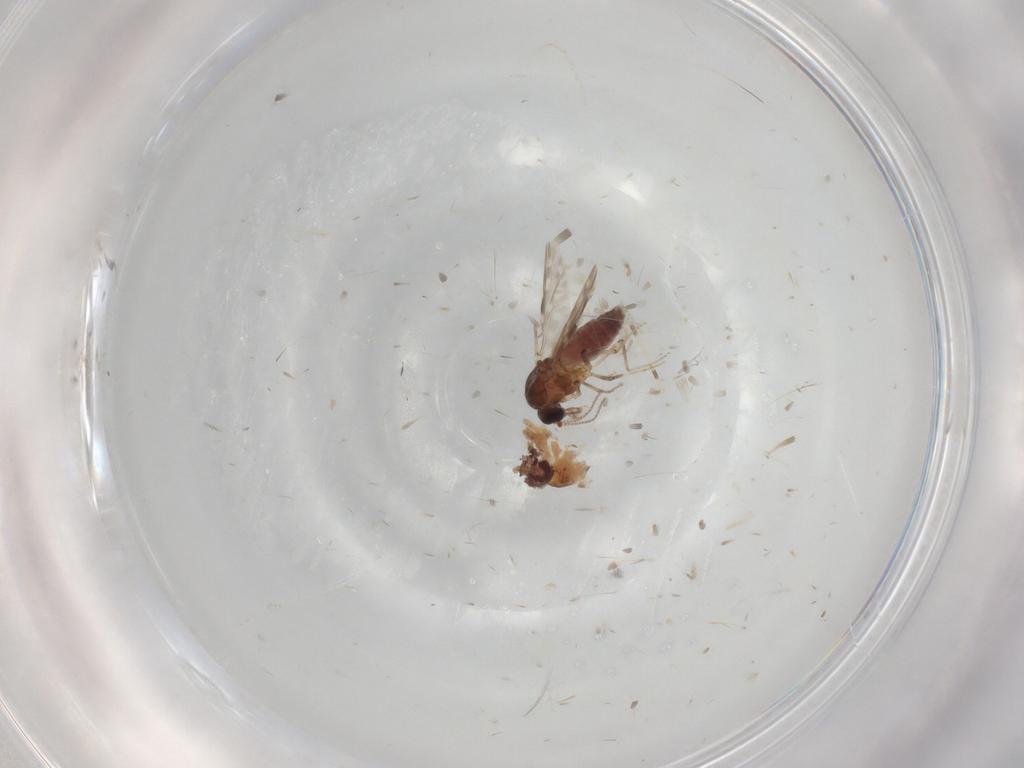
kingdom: Animalia
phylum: Arthropoda
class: Insecta
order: Diptera
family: Psychodidae
